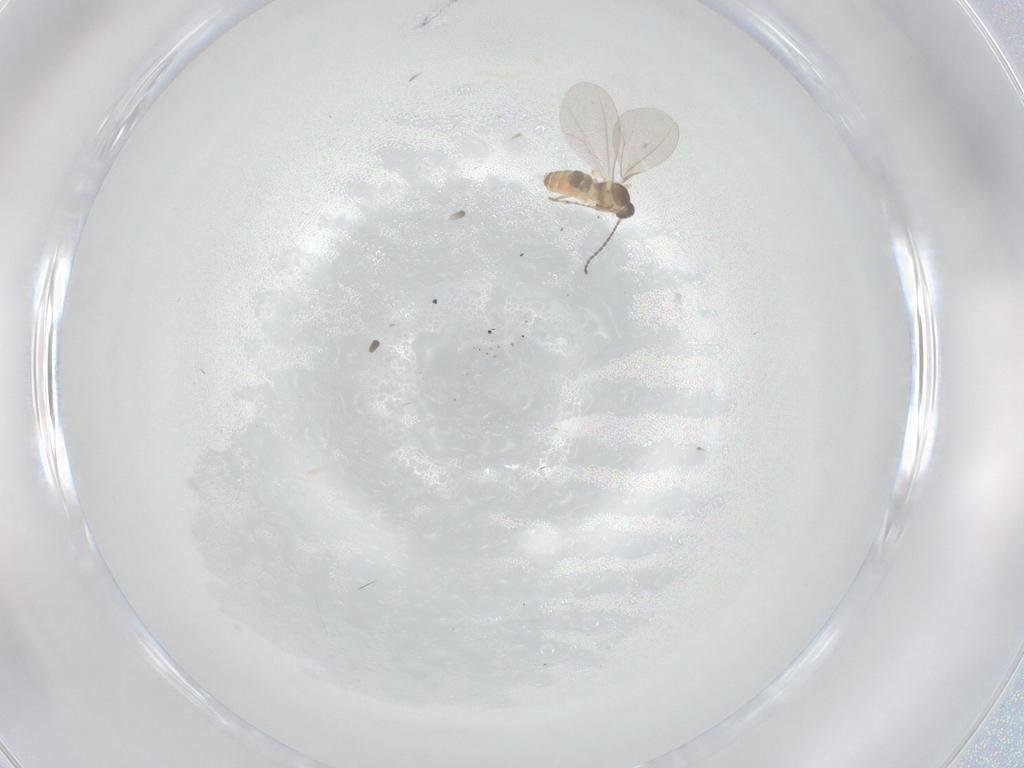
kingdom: Animalia
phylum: Arthropoda
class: Insecta
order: Diptera
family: Cecidomyiidae
